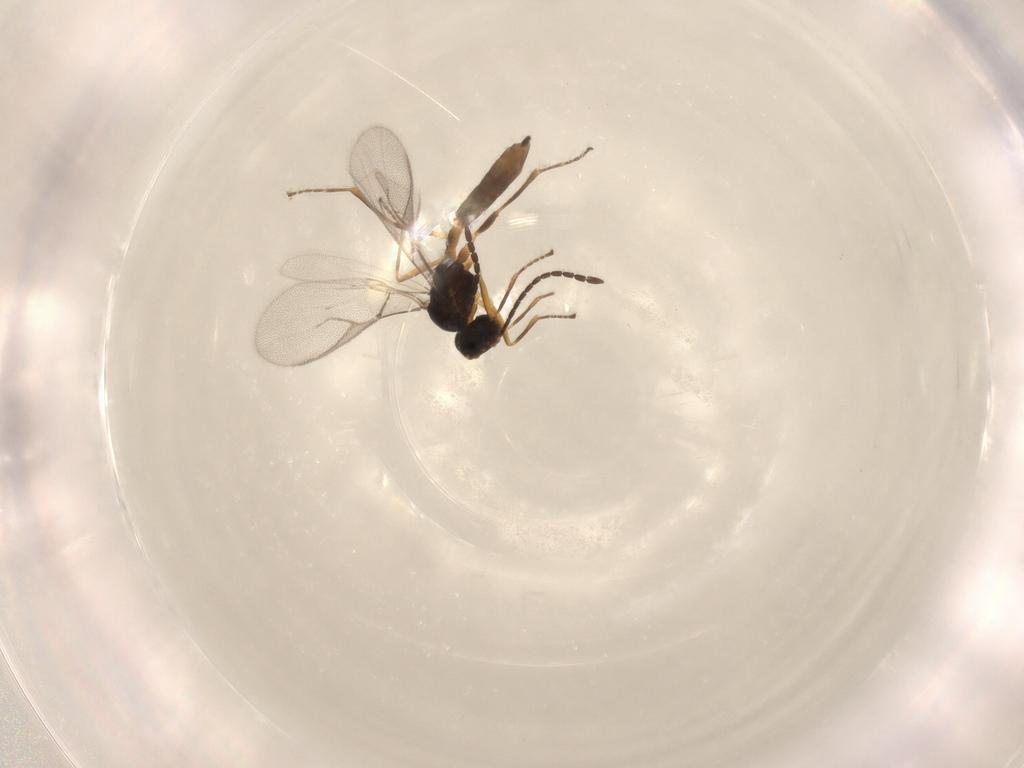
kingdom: Animalia
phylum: Arthropoda
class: Insecta
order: Hymenoptera
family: Braconidae
